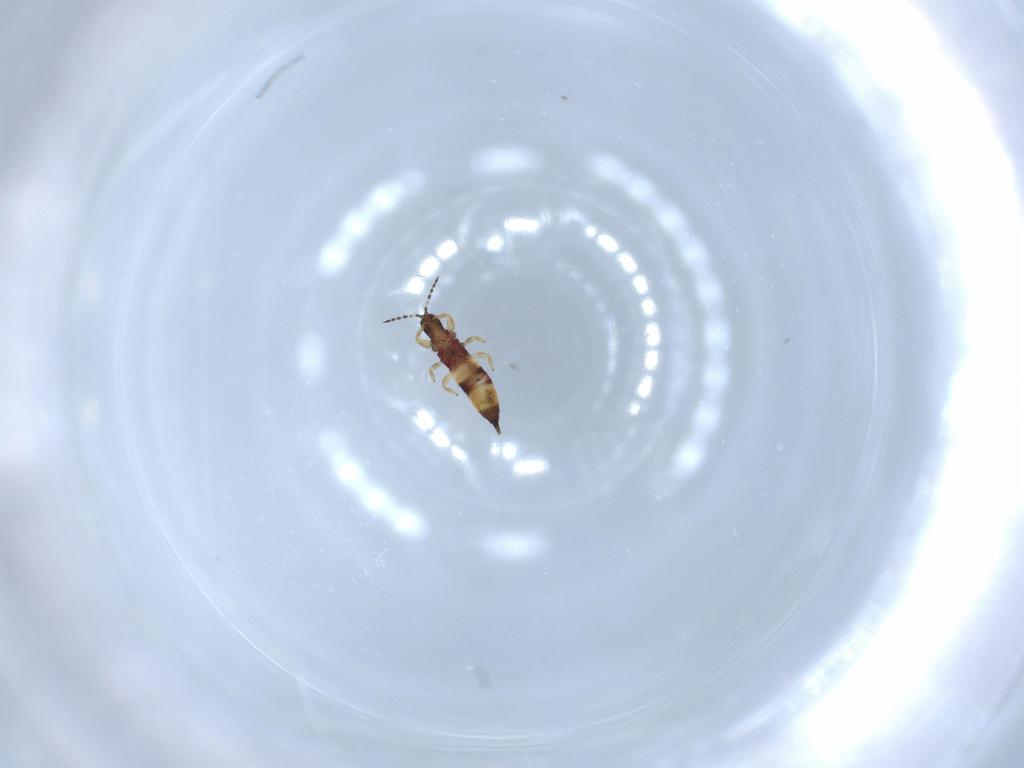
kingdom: Animalia
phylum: Arthropoda
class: Insecta
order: Thysanoptera
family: Phlaeothripidae
